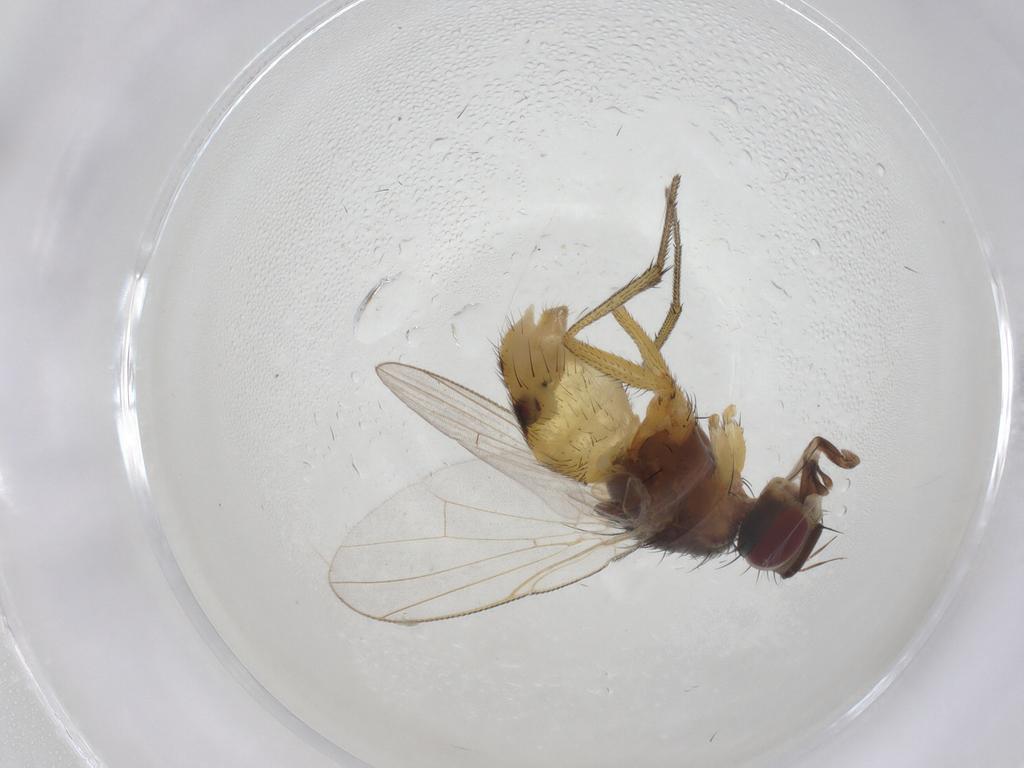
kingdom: Animalia
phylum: Arthropoda
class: Insecta
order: Diptera
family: Muscidae
